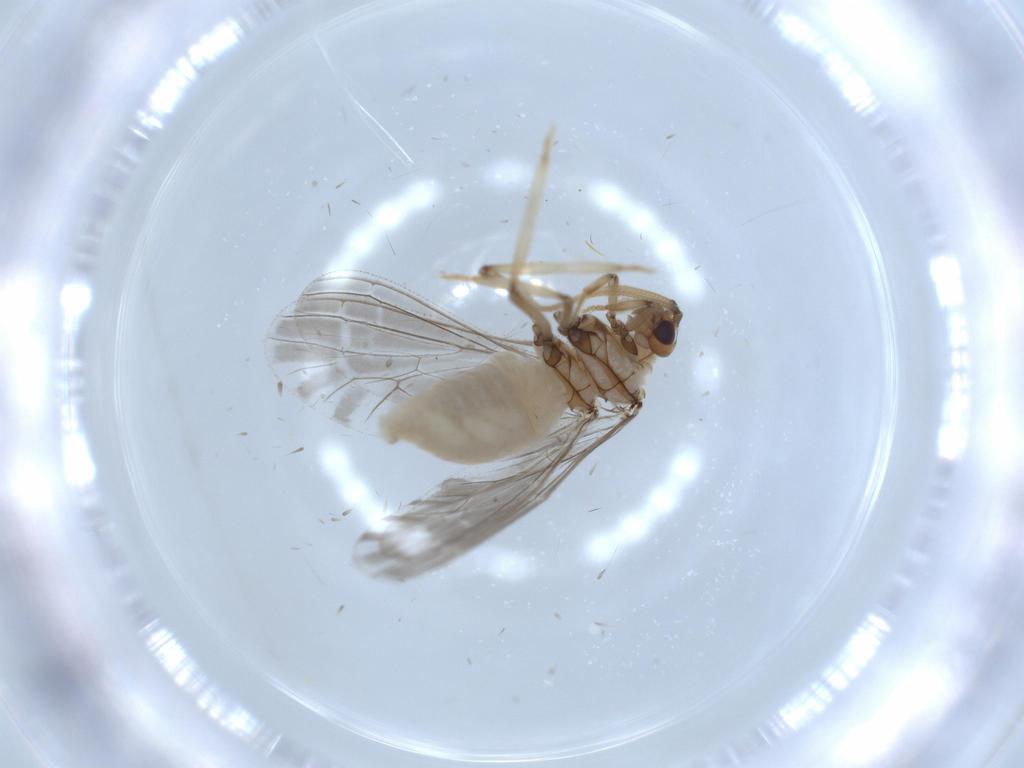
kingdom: Animalia
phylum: Arthropoda
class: Insecta
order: Neuroptera
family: Coniopterygidae
